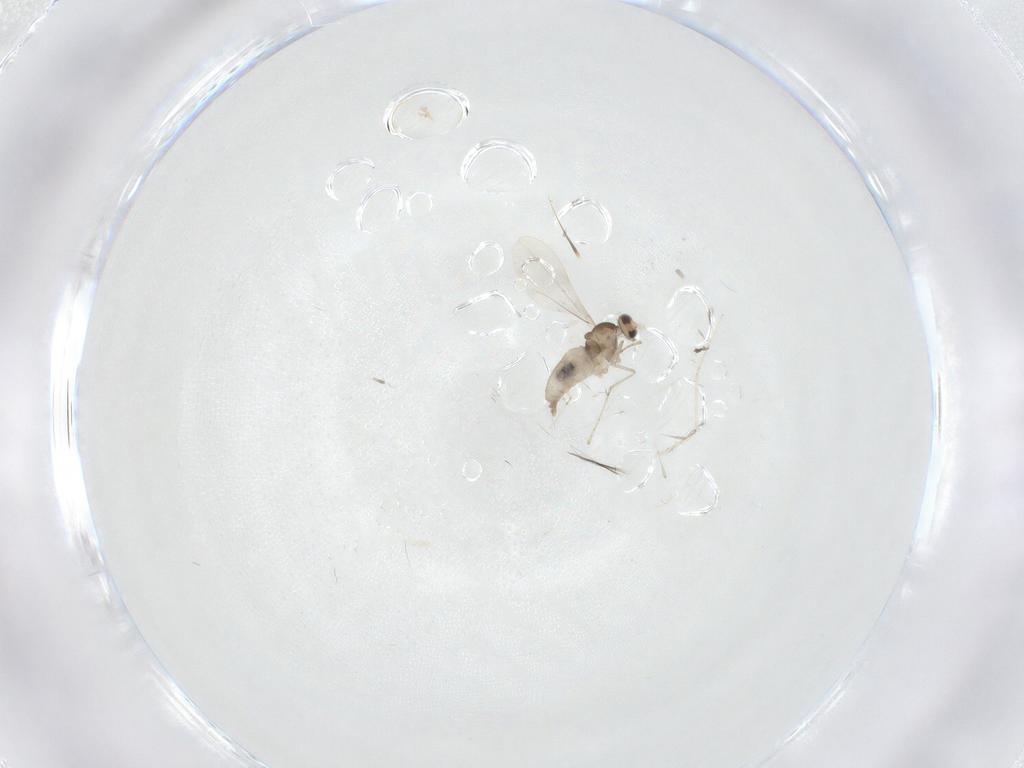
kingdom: Animalia
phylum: Arthropoda
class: Insecta
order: Diptera
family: Cecidomyiidae
